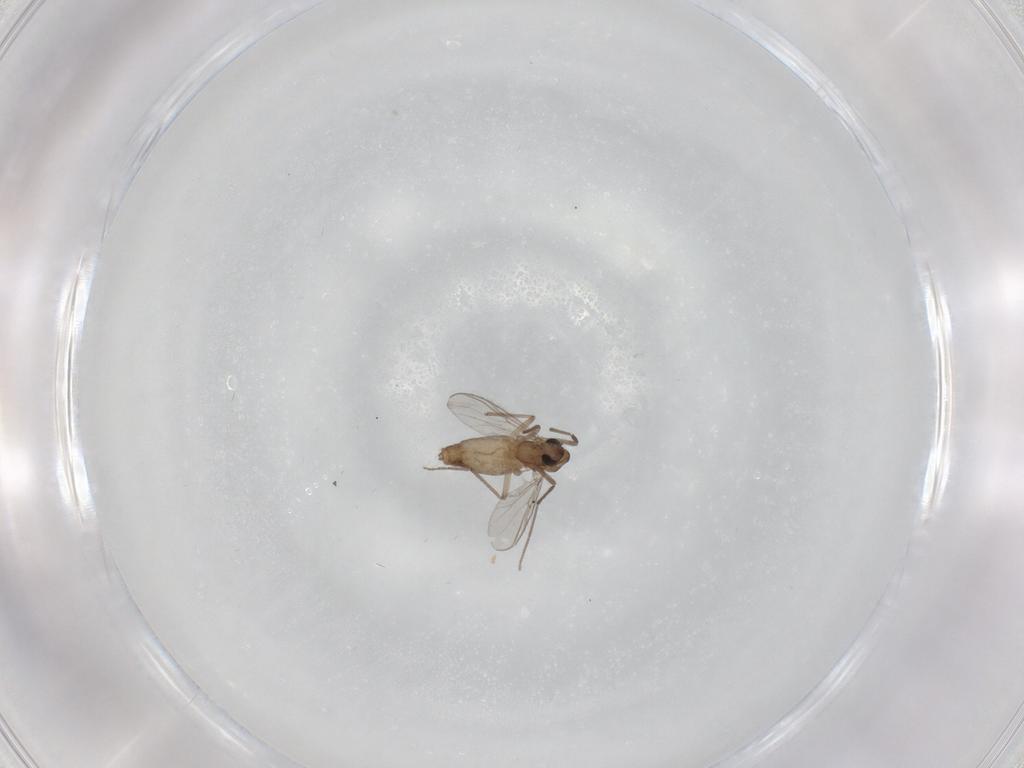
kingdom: Animalia
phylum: Arthropoda
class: Insecta
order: Diptera
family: Chironomidae
